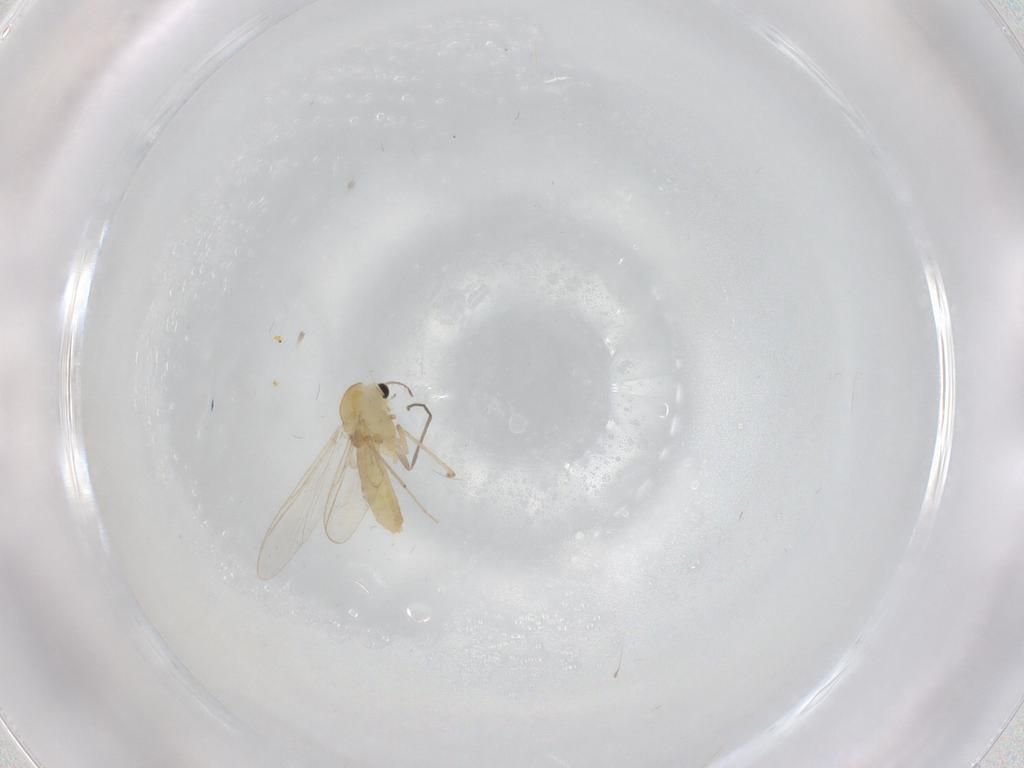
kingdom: Animalia
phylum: Arthropoda
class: Insecta
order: Diptera
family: Chironomidae
